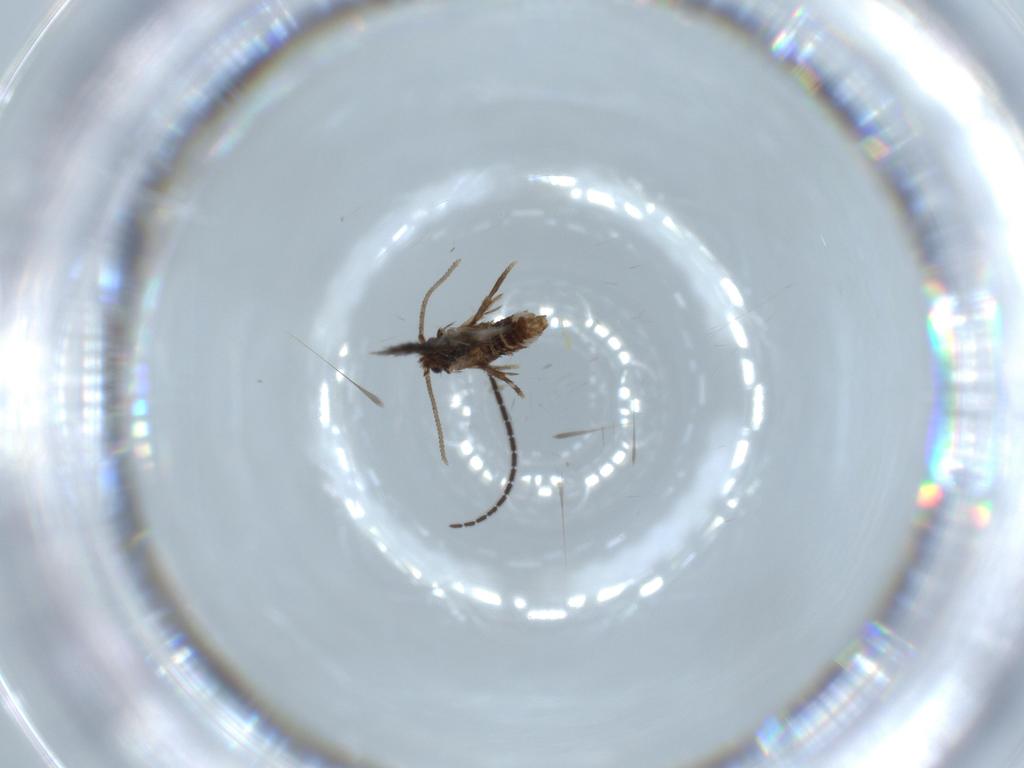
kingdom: Animalia
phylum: Arthropoda
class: Insecta
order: Lepidoptera
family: Nepticulidae
